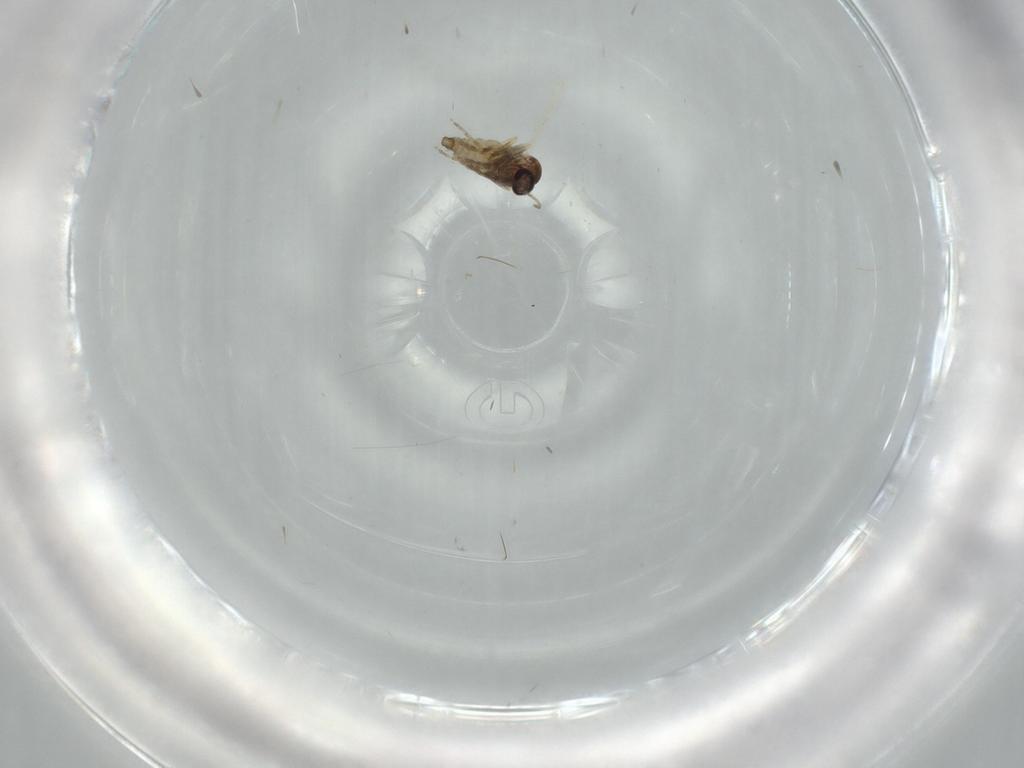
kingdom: Animalia
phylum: Arthropoda
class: Insecta
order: Diptera
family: Ceratopogonidae
